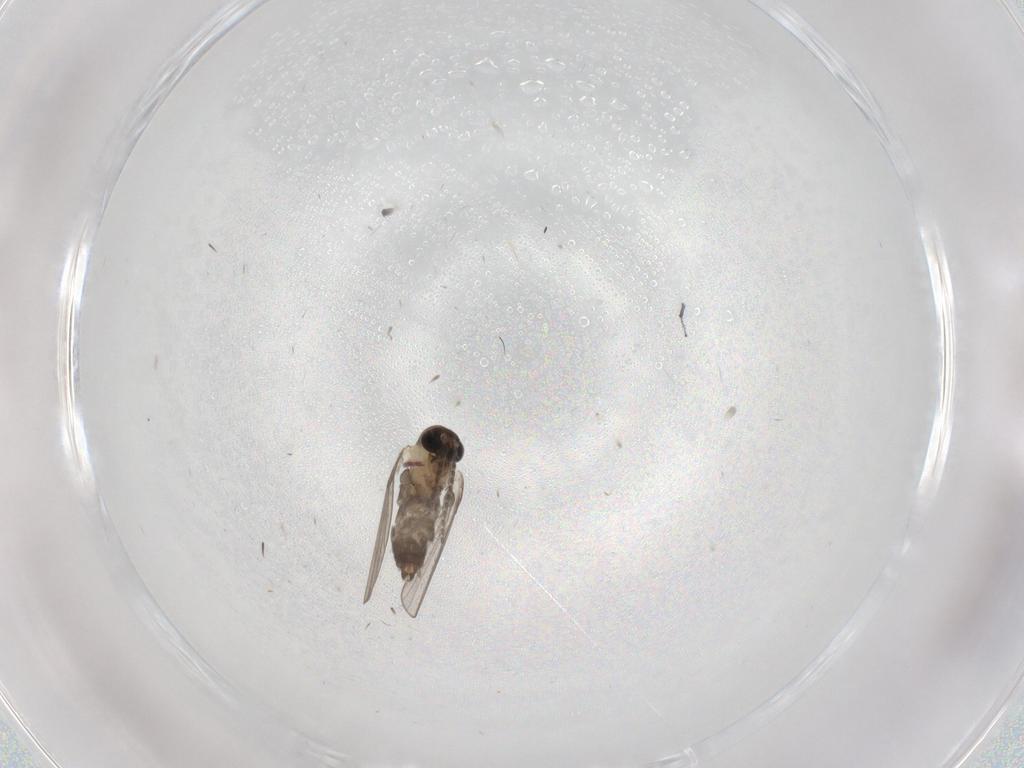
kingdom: Animalia
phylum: Arthropoda
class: Insecta
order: Diptera
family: Psychodidae
